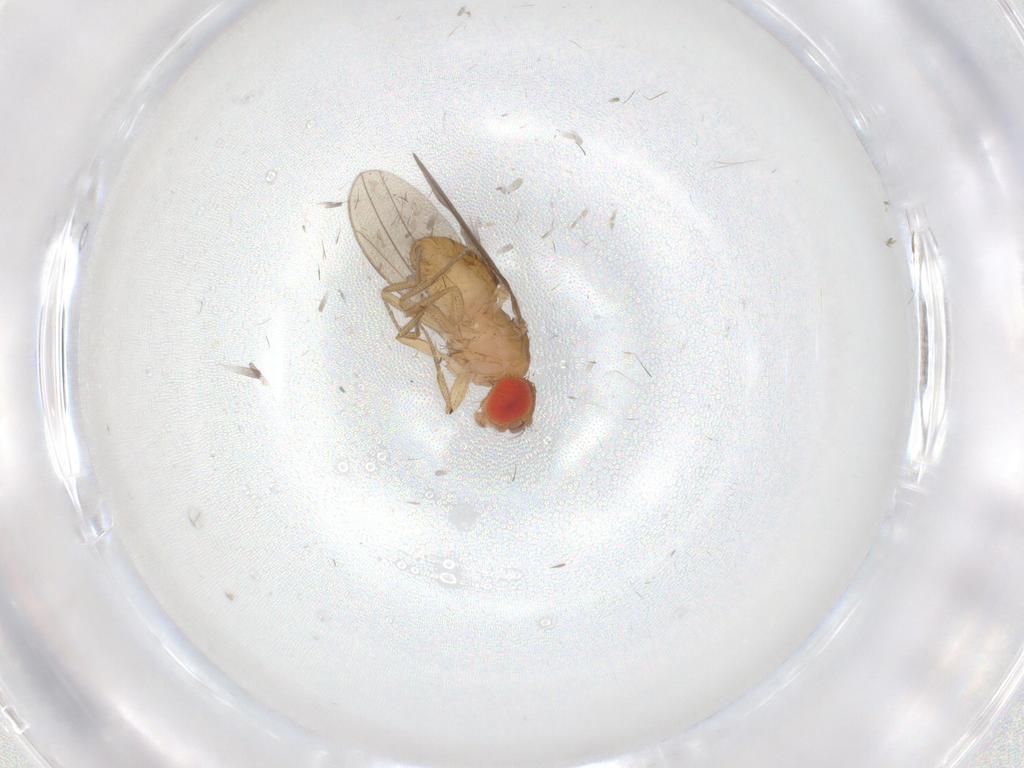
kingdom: Animalia
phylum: Arthropoda
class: Insecta
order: Diptera
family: Drosophilidae
